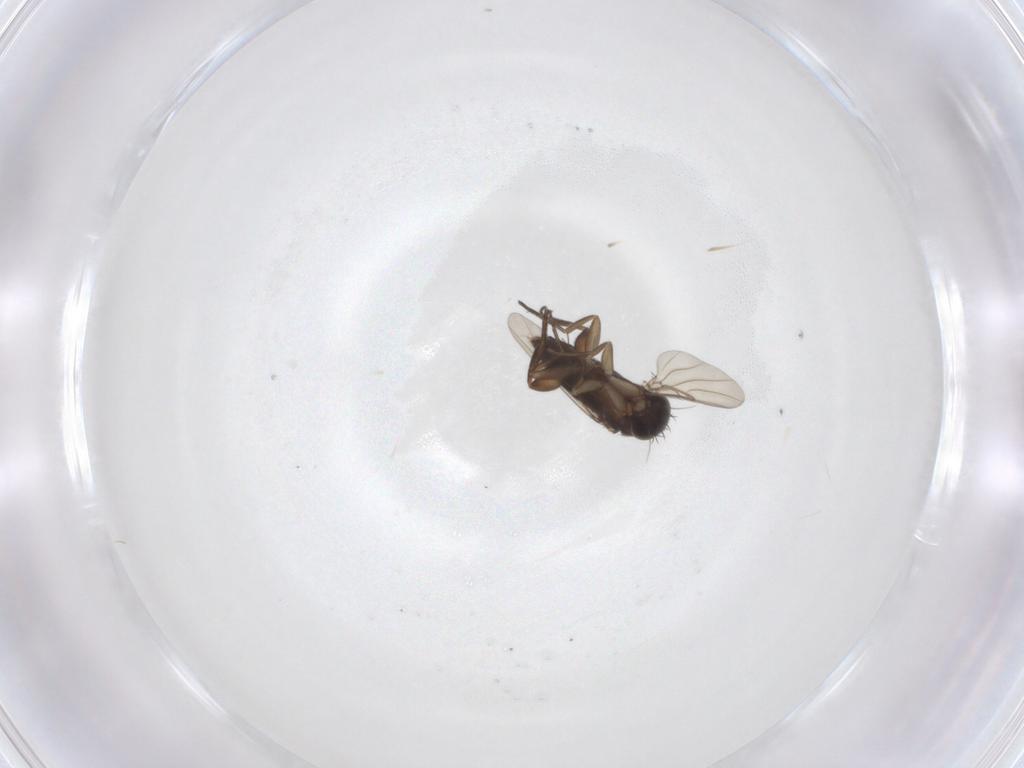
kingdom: Animalia
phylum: Arthropoda
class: Insecta
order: Diptera
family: Phoridae
